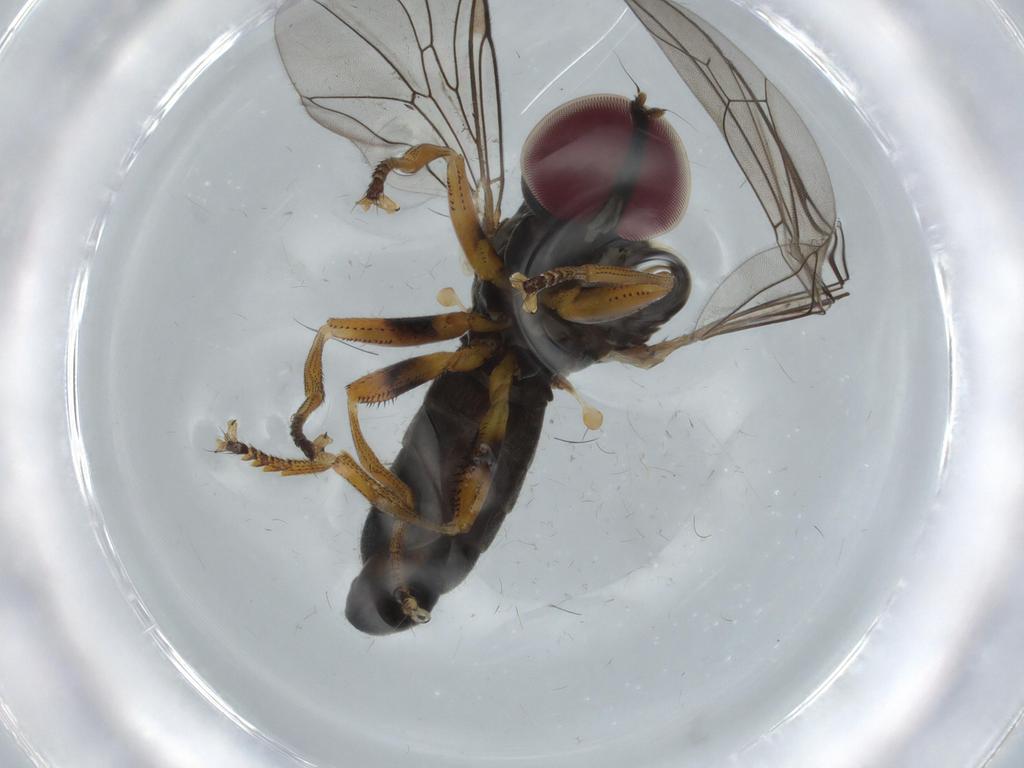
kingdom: Animalia
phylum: Arthropoda
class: Insecta
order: Diptera
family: Pipunculidae
